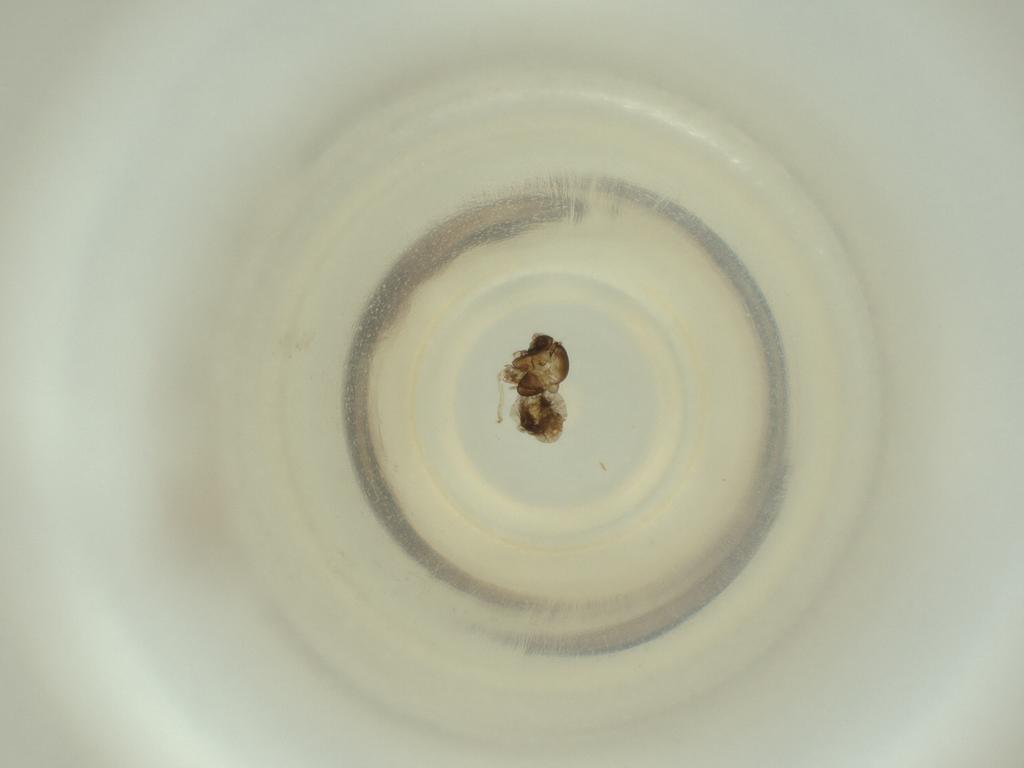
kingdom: Animalia
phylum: Arthropoda
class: Insecta
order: Diptera
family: Cecidomyiidae
